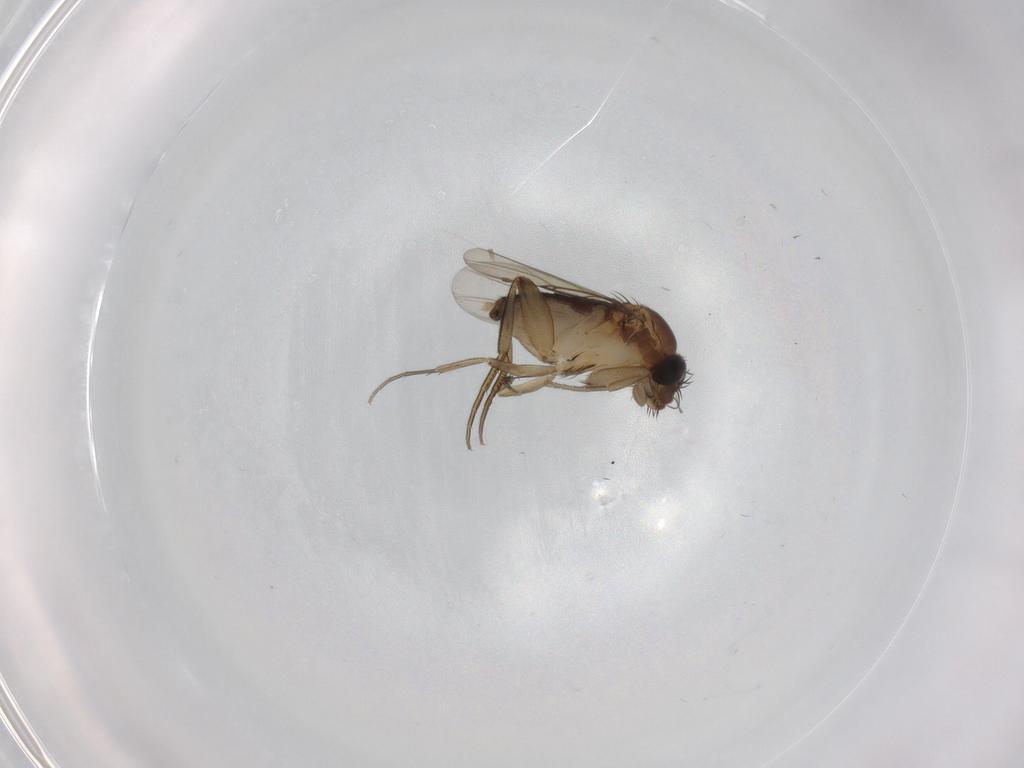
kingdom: Animalia
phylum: Arthropoda
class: Insecta
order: Diptera
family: Phoridae
